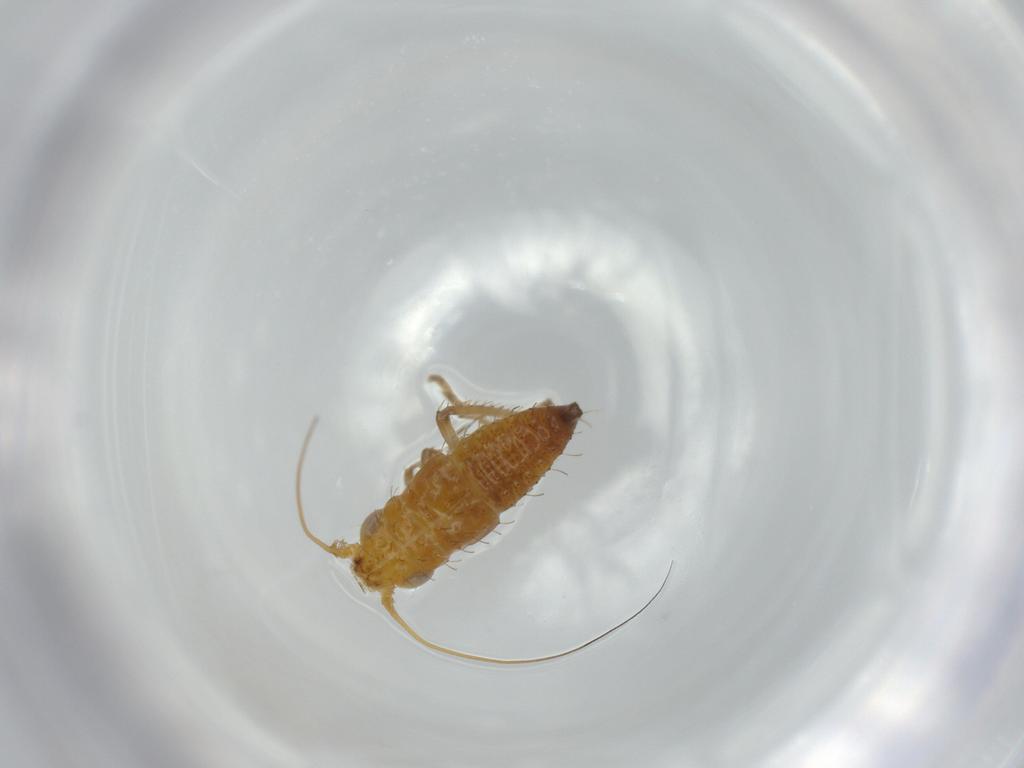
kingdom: Animalia
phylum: Arthropoda
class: Insecta
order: Hemiptera
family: Cicadellidae
